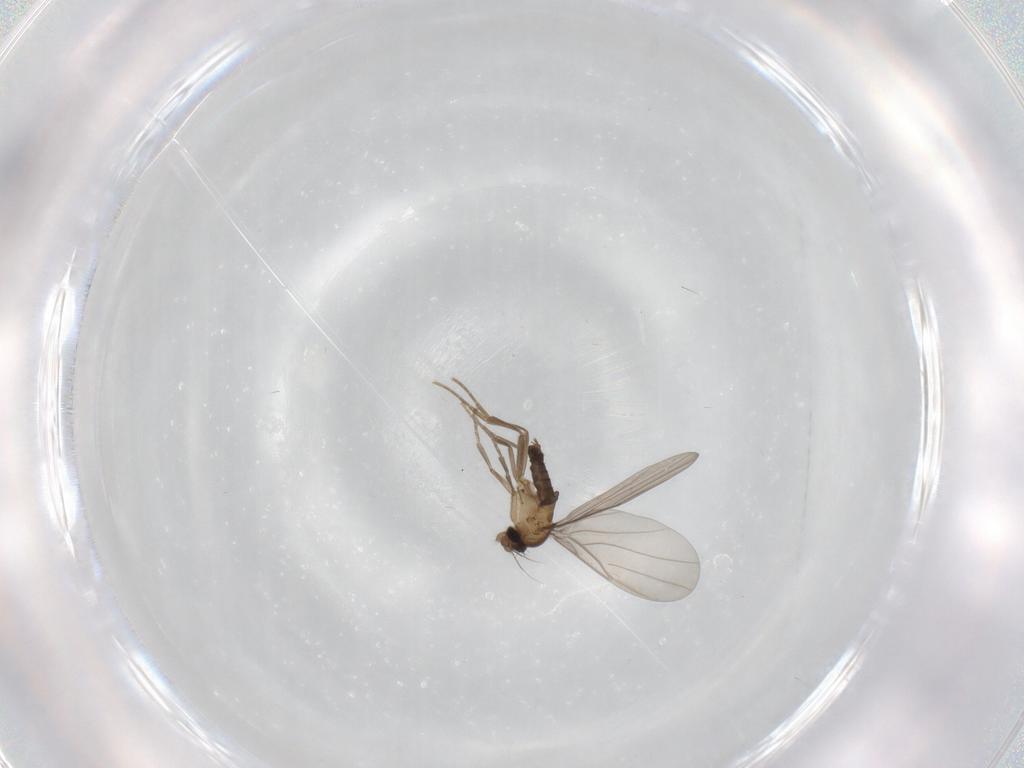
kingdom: Animalia
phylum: Arthropoda
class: Insecta
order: Diptera
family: Phoridae
